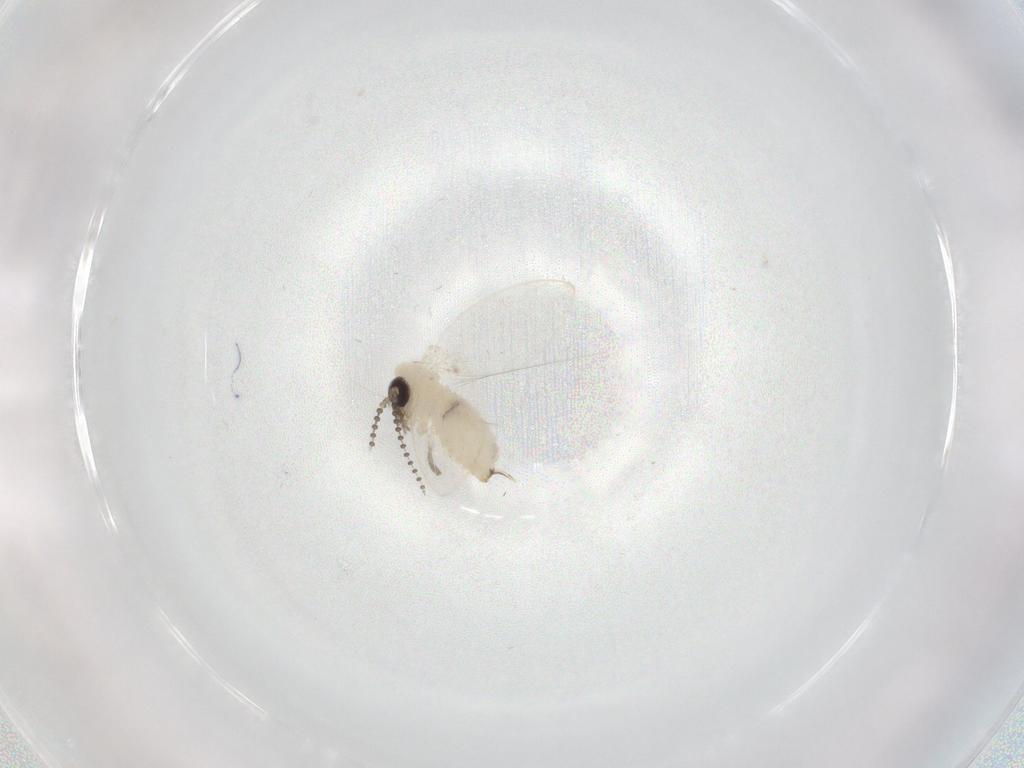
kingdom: Animalia
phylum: Arthropoda
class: Insecta
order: Diptera
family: Psychodidae
